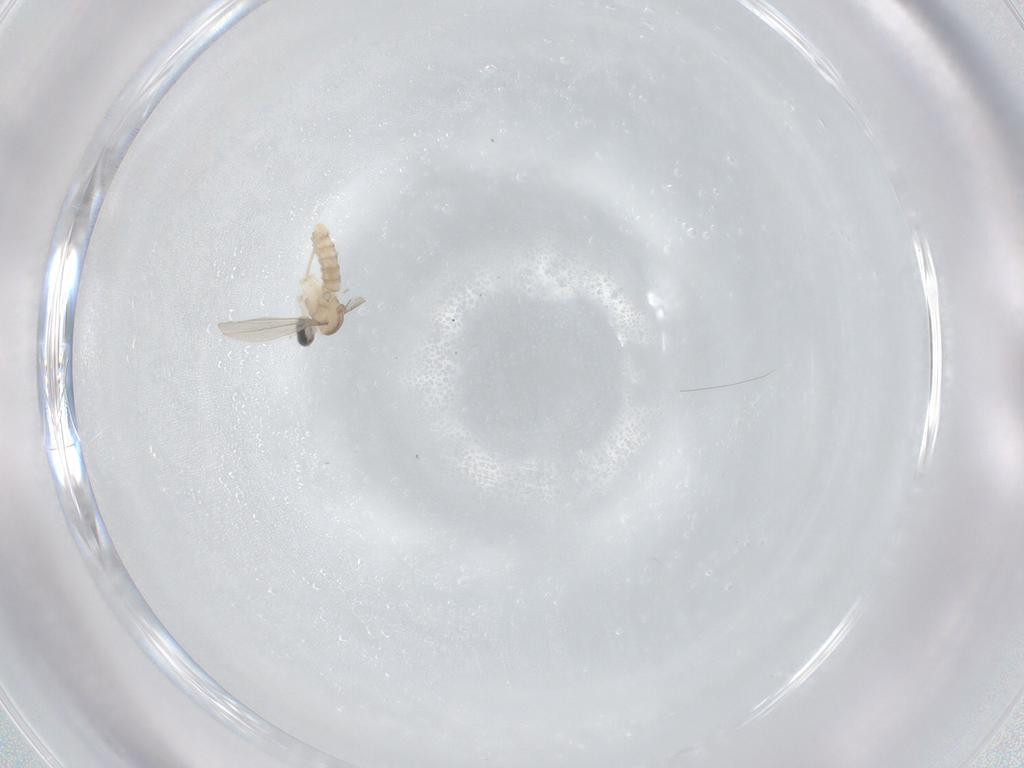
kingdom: Animalia
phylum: Arthropoda
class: Insecta
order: Diptera
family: Cecidomyiidae
